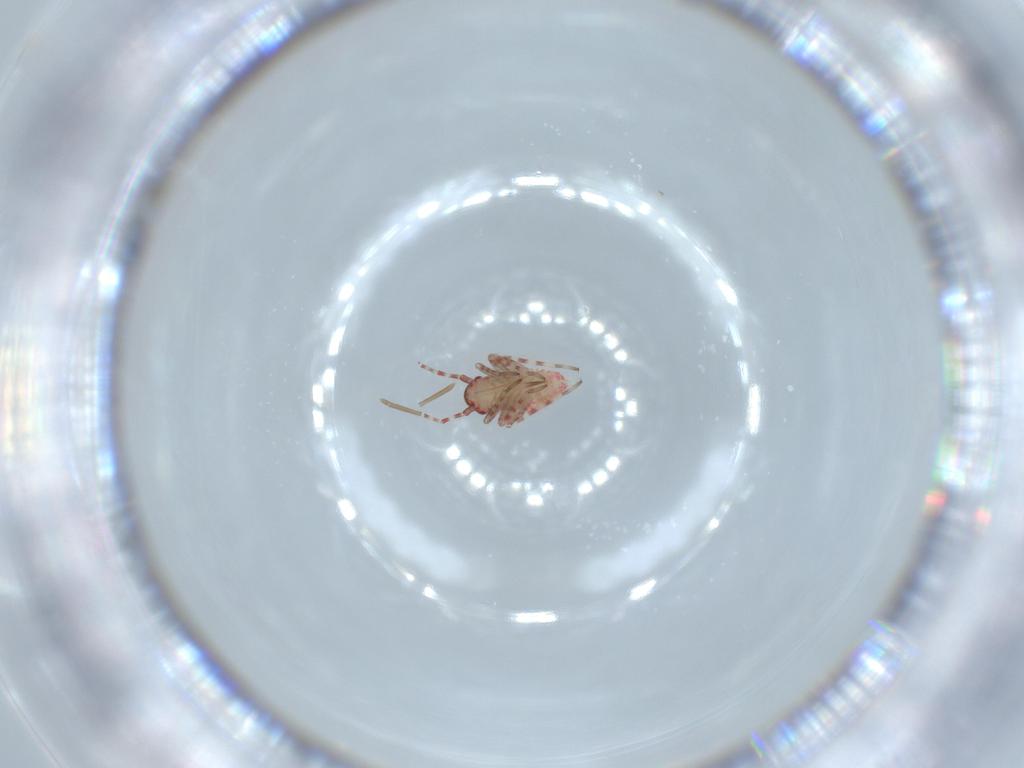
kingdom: Animalia
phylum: Arthropoda
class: Insecta
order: Hemiptera
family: Miridae
